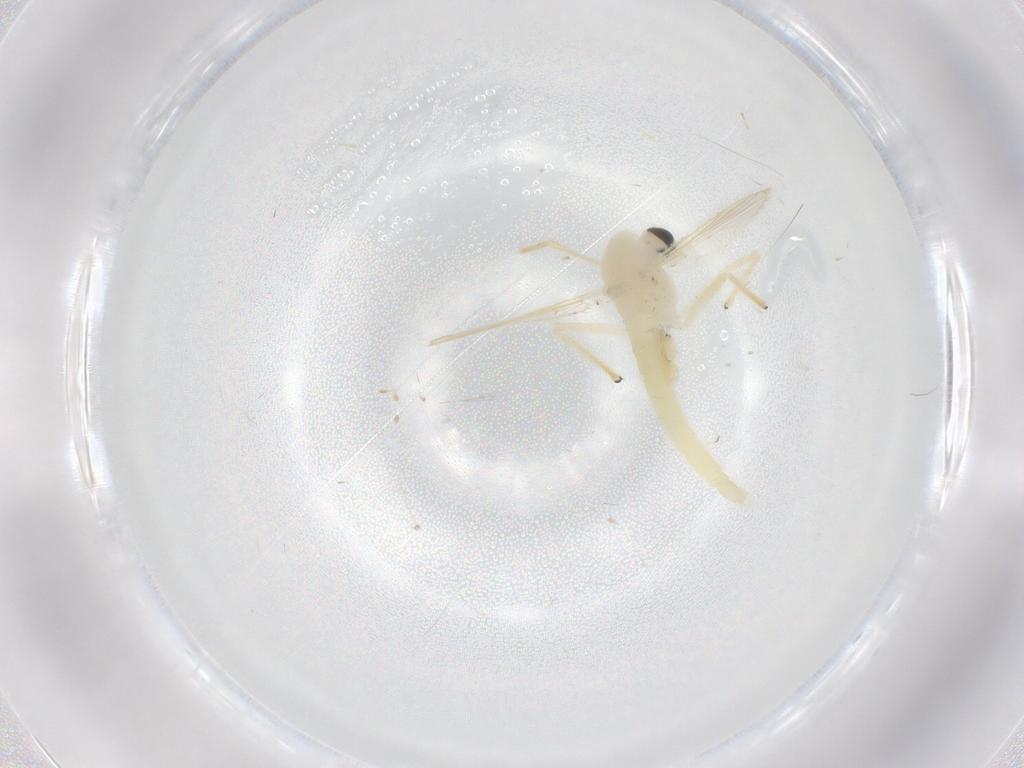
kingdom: Animalia
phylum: Arthropoda
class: Insecta
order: Diptera
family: Chironomidae
